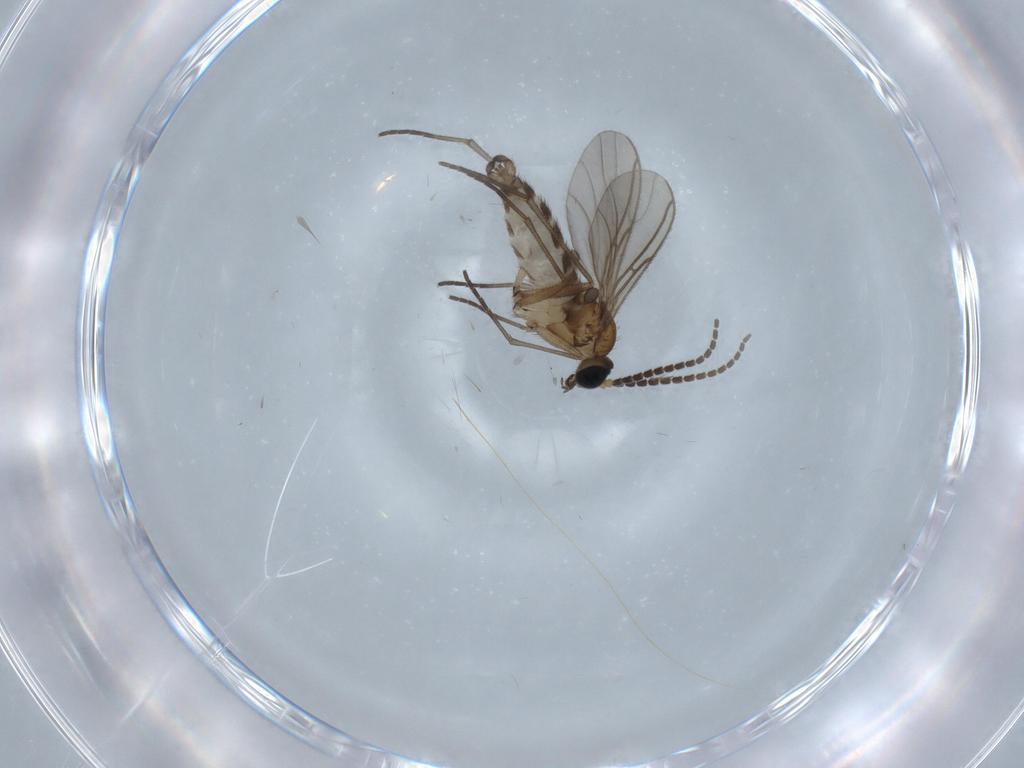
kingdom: Animalia
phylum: Arthropoda
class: Insecta
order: Diptera
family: Sciaridae
